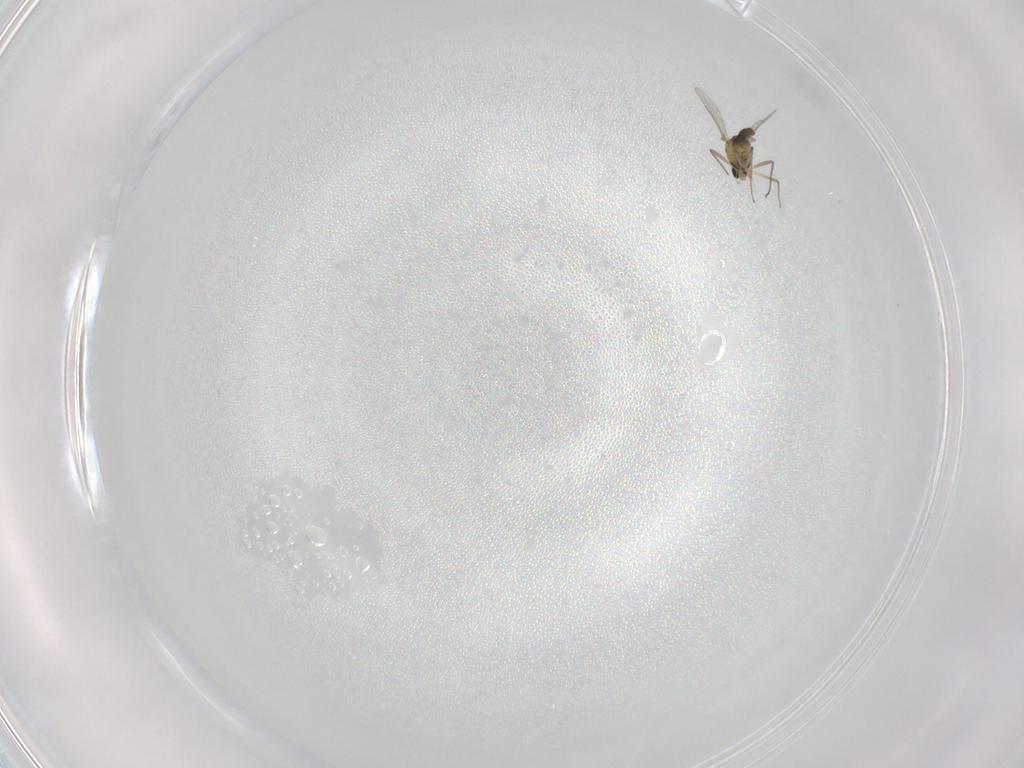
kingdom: Animalia
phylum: Arthropoda
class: Insecta
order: Diptera
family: Chironomidae
